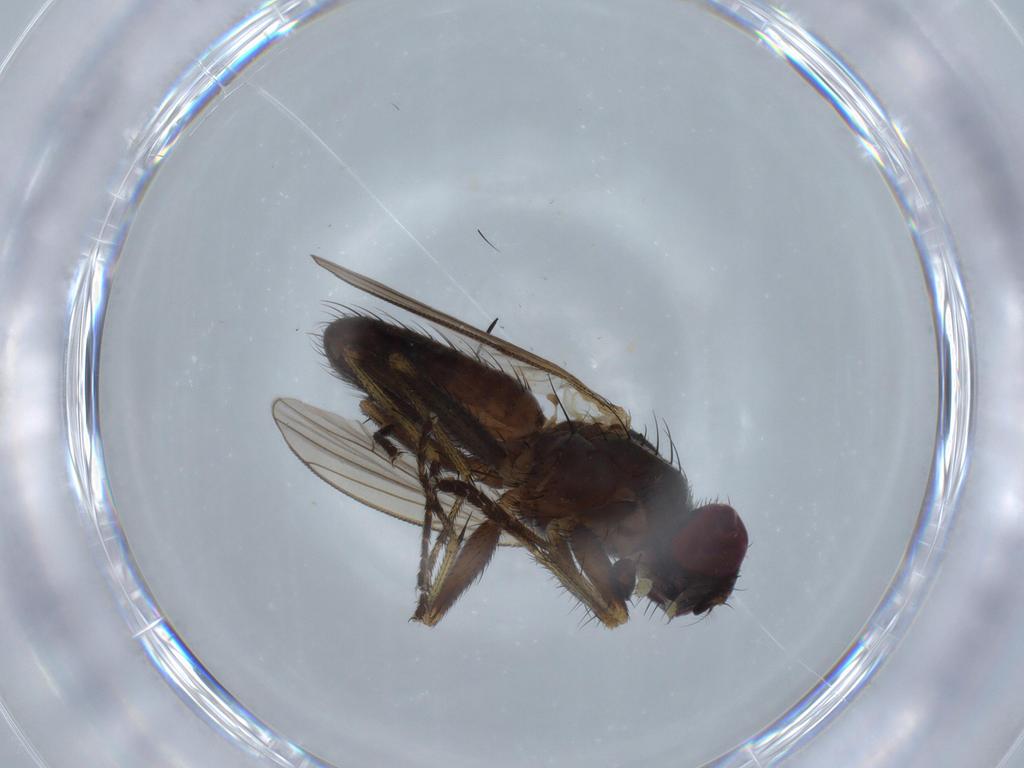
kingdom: Animalia
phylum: Arthropoda
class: Insecta
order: Diptera
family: Muscidae
